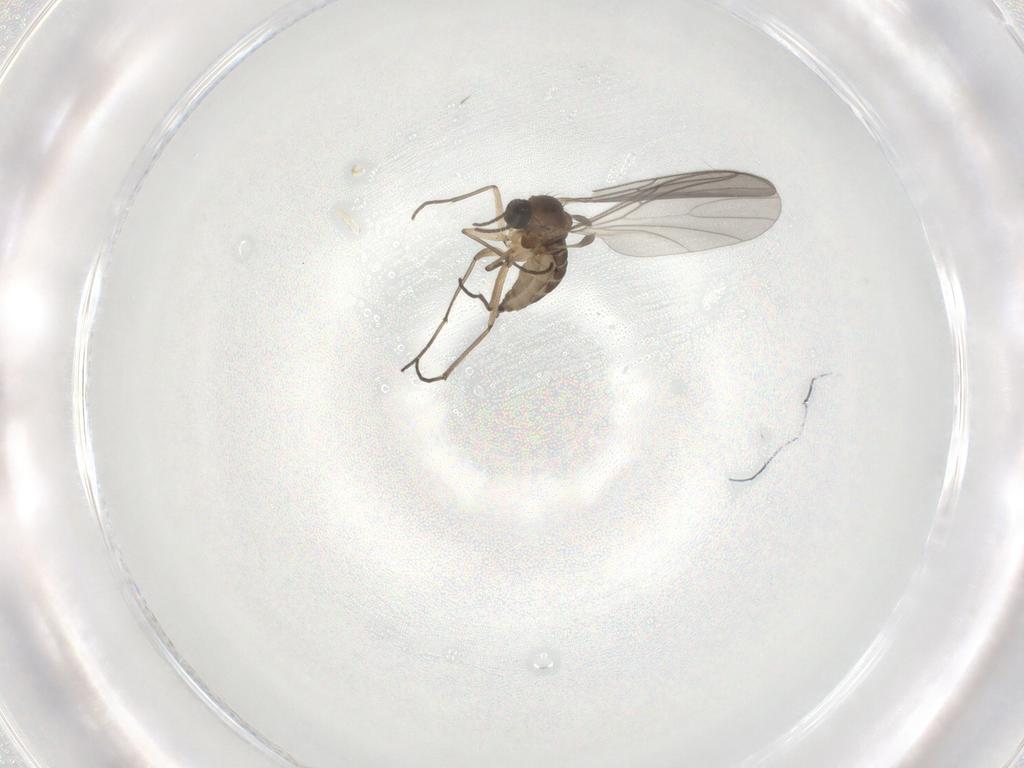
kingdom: Animalia
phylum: Arthropoda
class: Insecta
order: Diptera
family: Sciaridae
